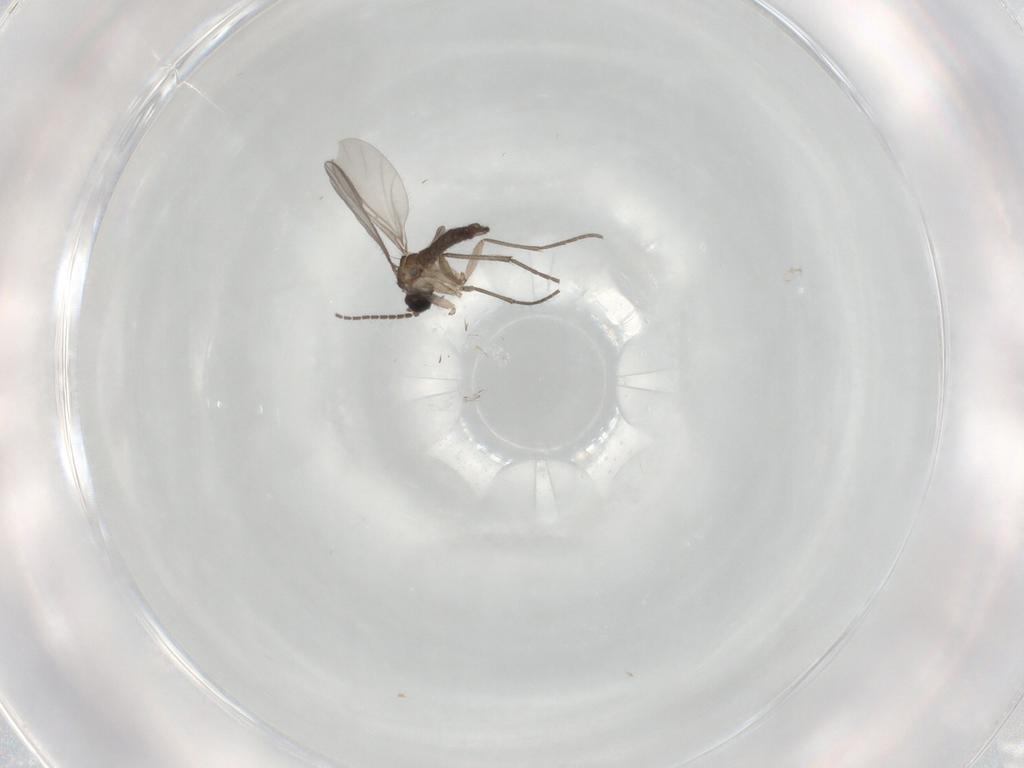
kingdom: Animalia
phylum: Arthropoda
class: Insecta
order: Diptera
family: Sciaridae
